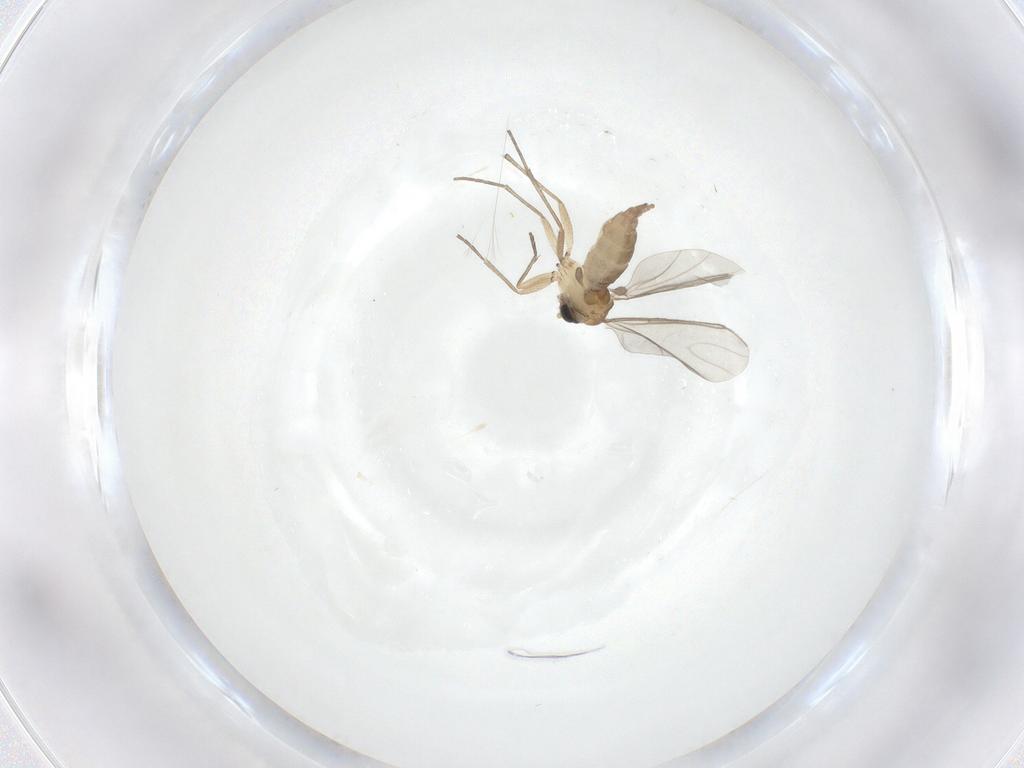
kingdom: Animalia
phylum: Arthropoda
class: Insecta
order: Diptera
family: Sciaridae
